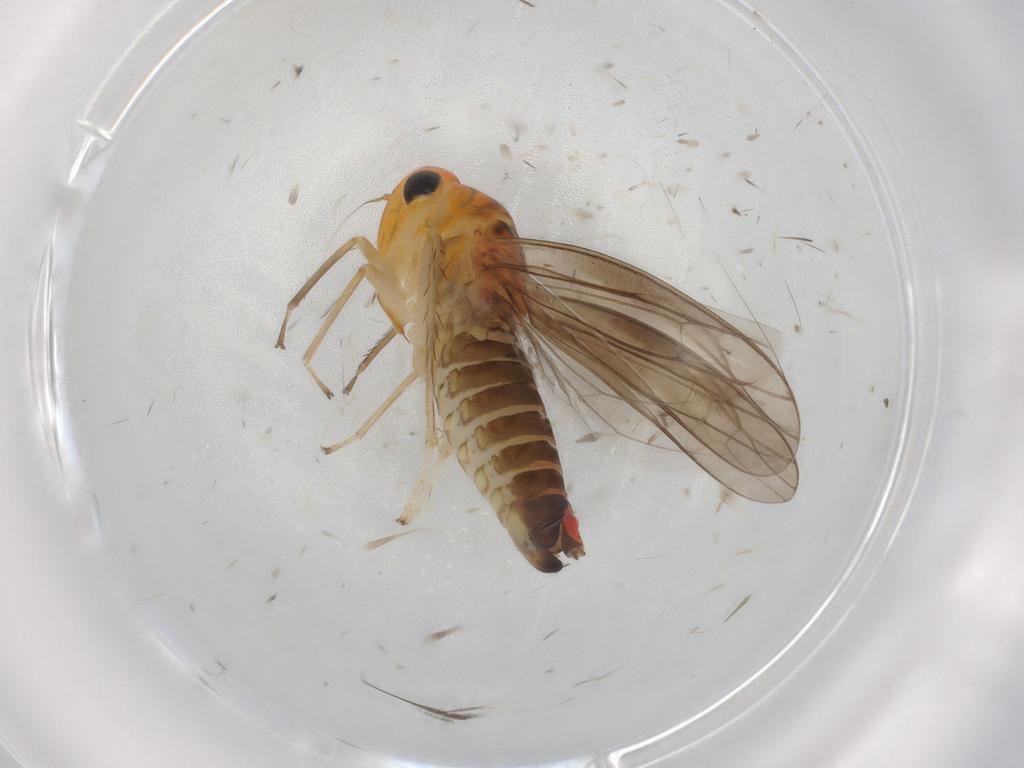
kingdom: Animalia
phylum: Arthropoda
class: Insecta
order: Hemiptera
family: Cicadellidae
